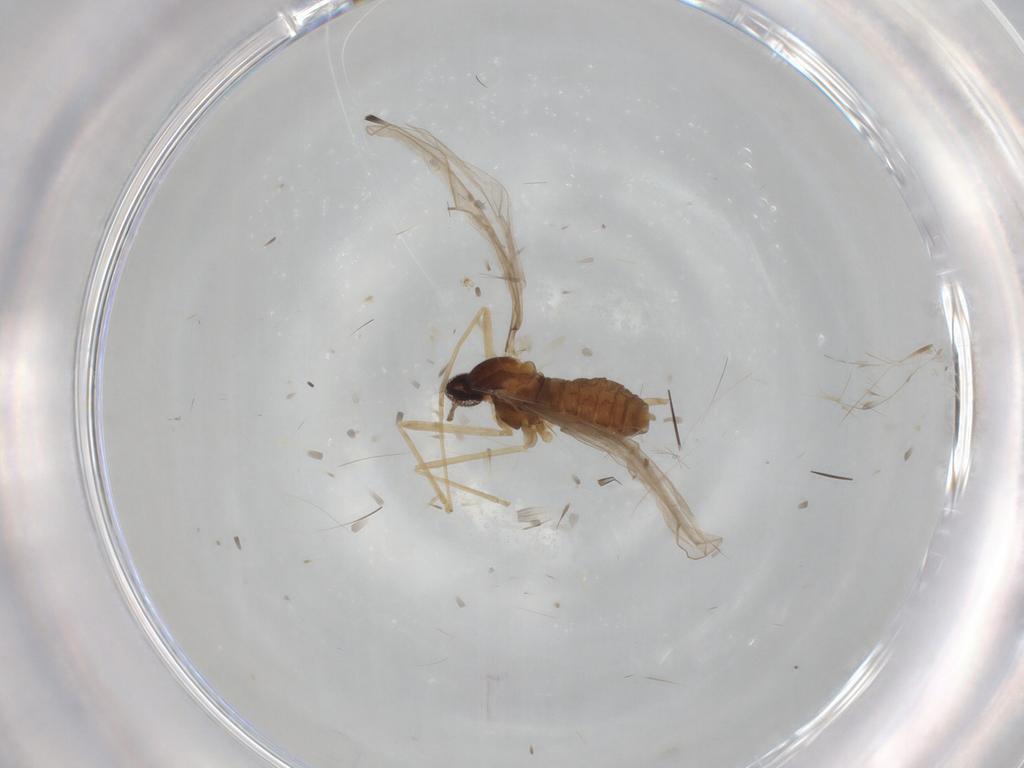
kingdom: Animalia
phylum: Arthropoda
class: Insecta
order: Diptera
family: Cecidomyiidae
